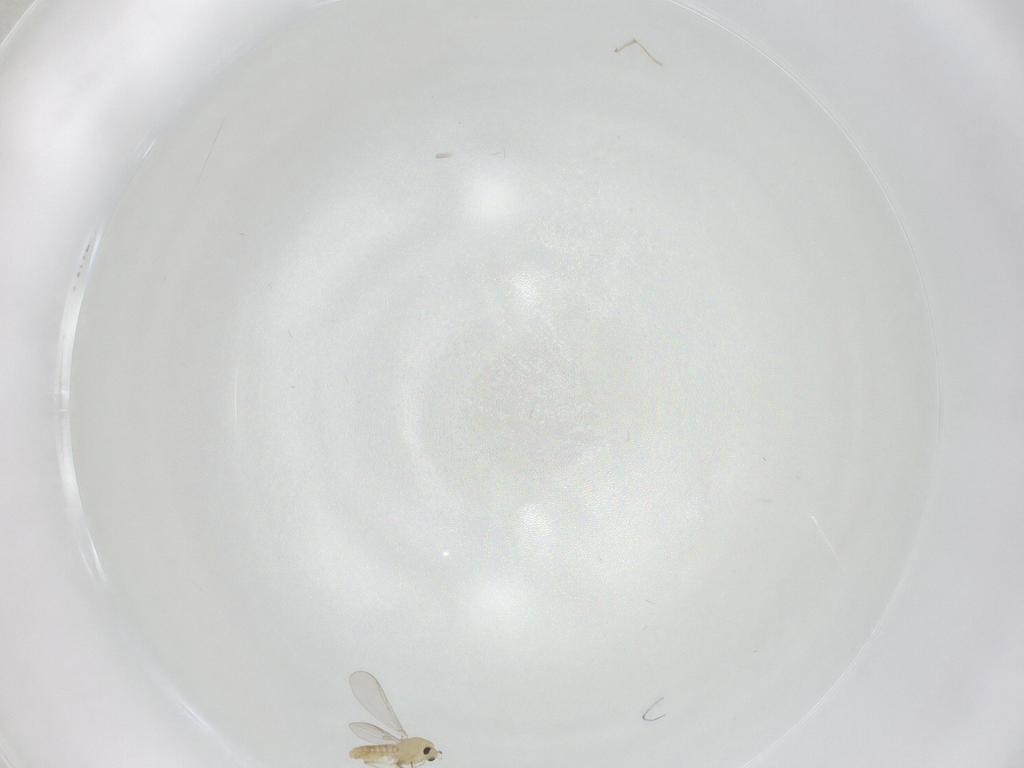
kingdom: Animalia
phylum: Arthropoda
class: Insecta
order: Diptera
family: Chironomidae
